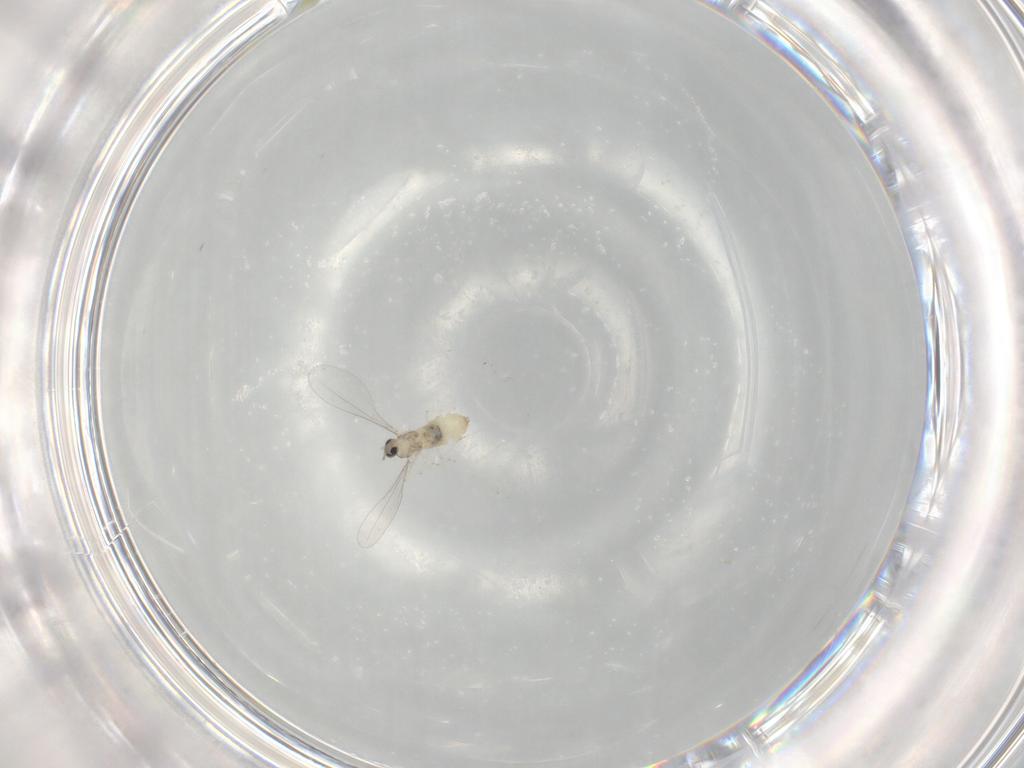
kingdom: Animalia
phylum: Arthropoda
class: Insecta
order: Diptera
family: Cecidomyiidae
